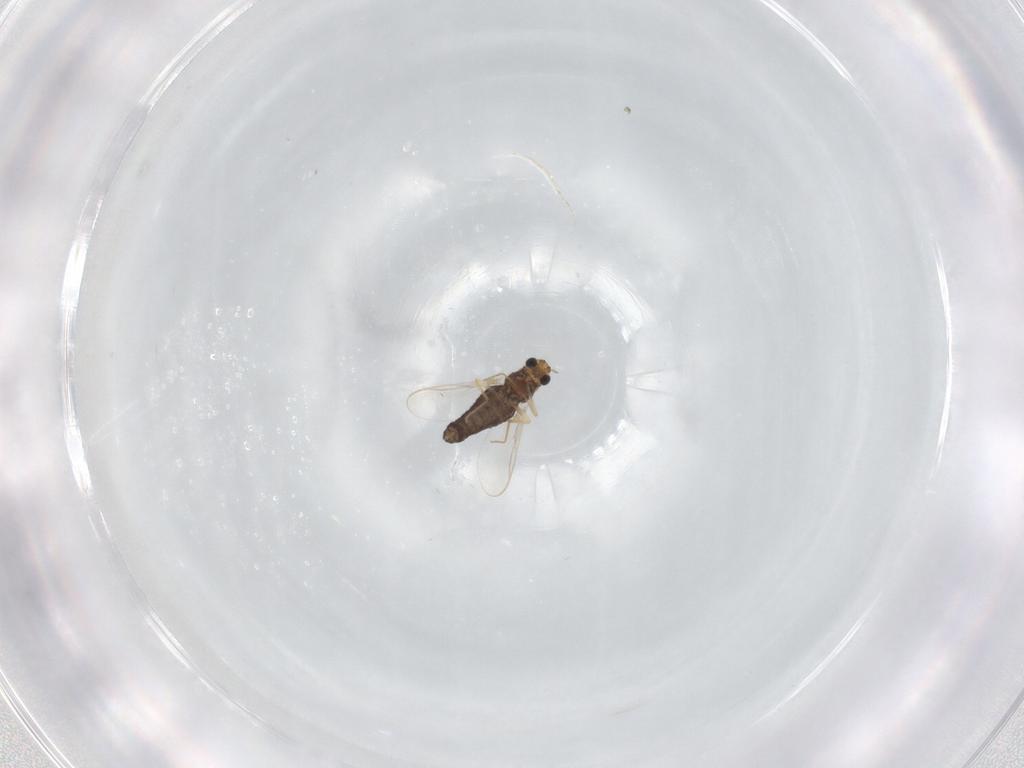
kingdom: Animalia
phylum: Arthropoda
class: Insecta
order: Diptera
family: Chironomidae
